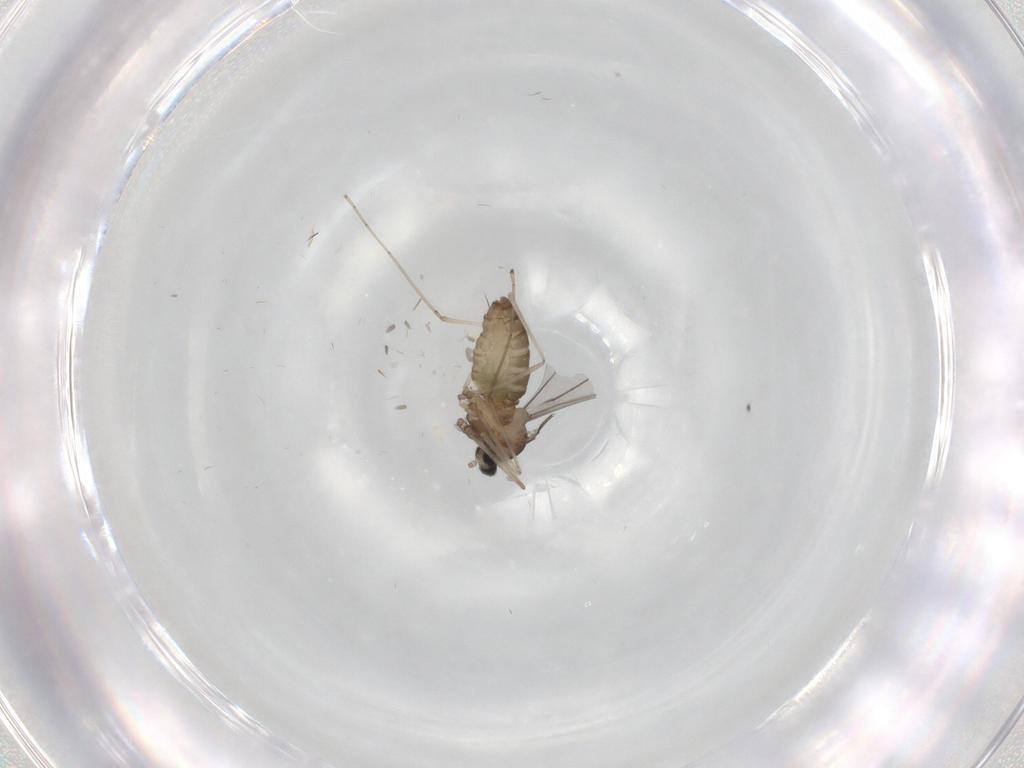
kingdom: Animalia
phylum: Arthropoda
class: Insecta
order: Diptera
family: Cecidomyiidae
